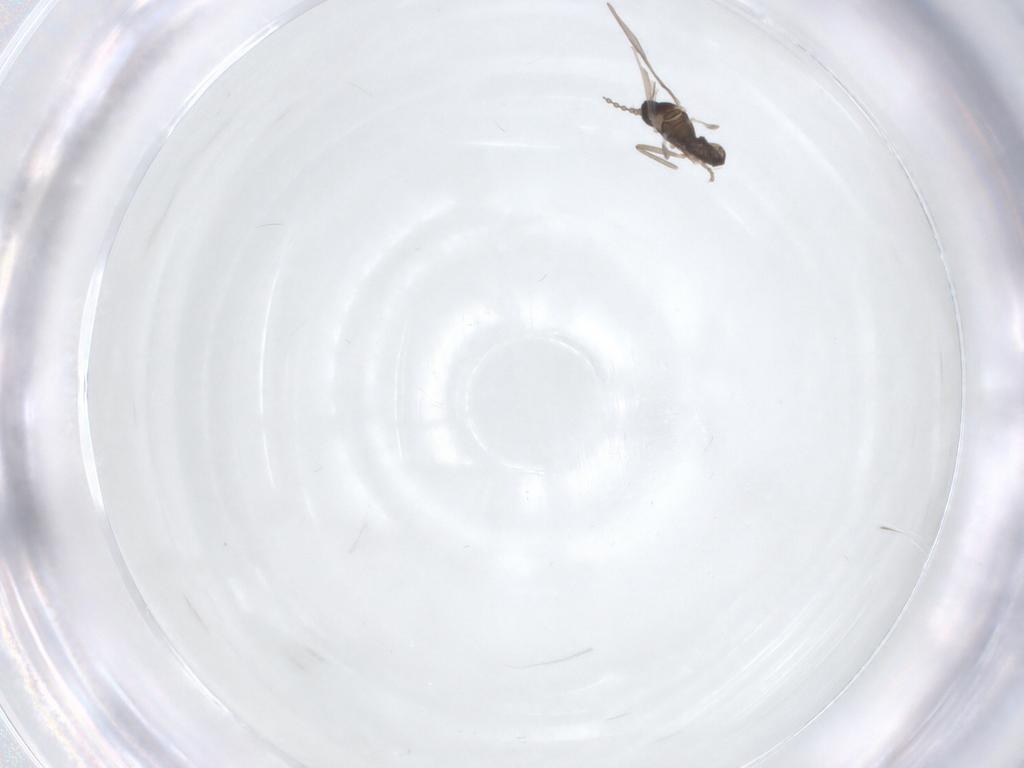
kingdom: Animalia
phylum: Arthropoda
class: Insecta
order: Diptera
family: Cecidomyiidae
